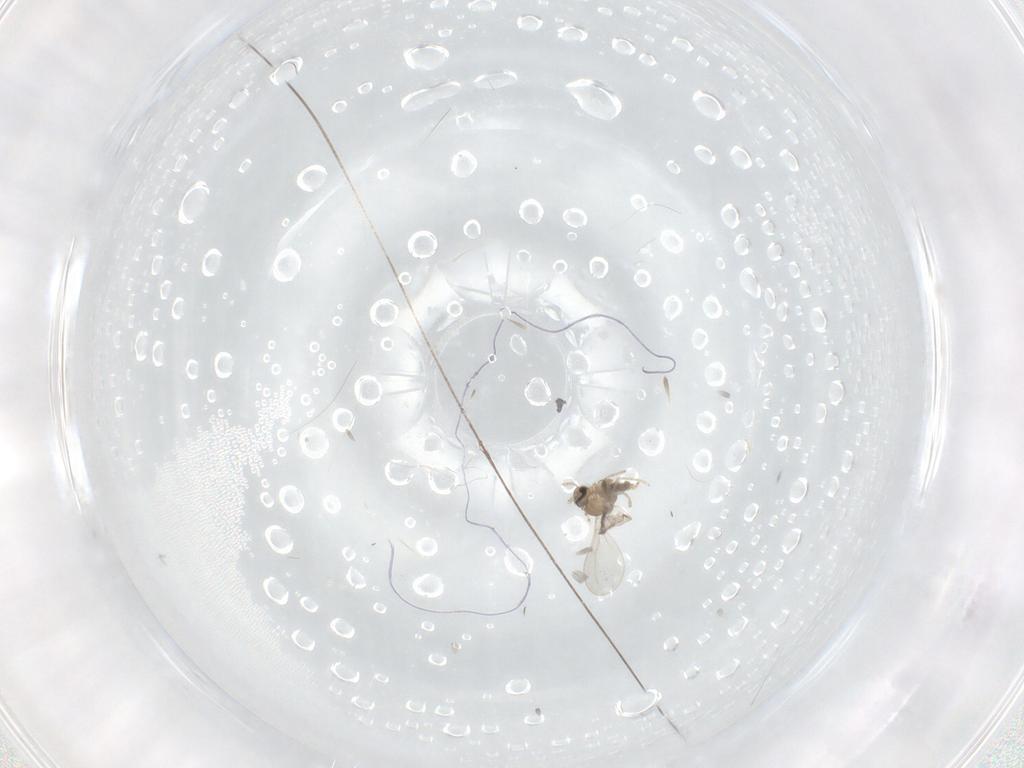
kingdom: Animalia
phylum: Arthropoda
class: Insecta
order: Diptera
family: Cecidomyiidae
